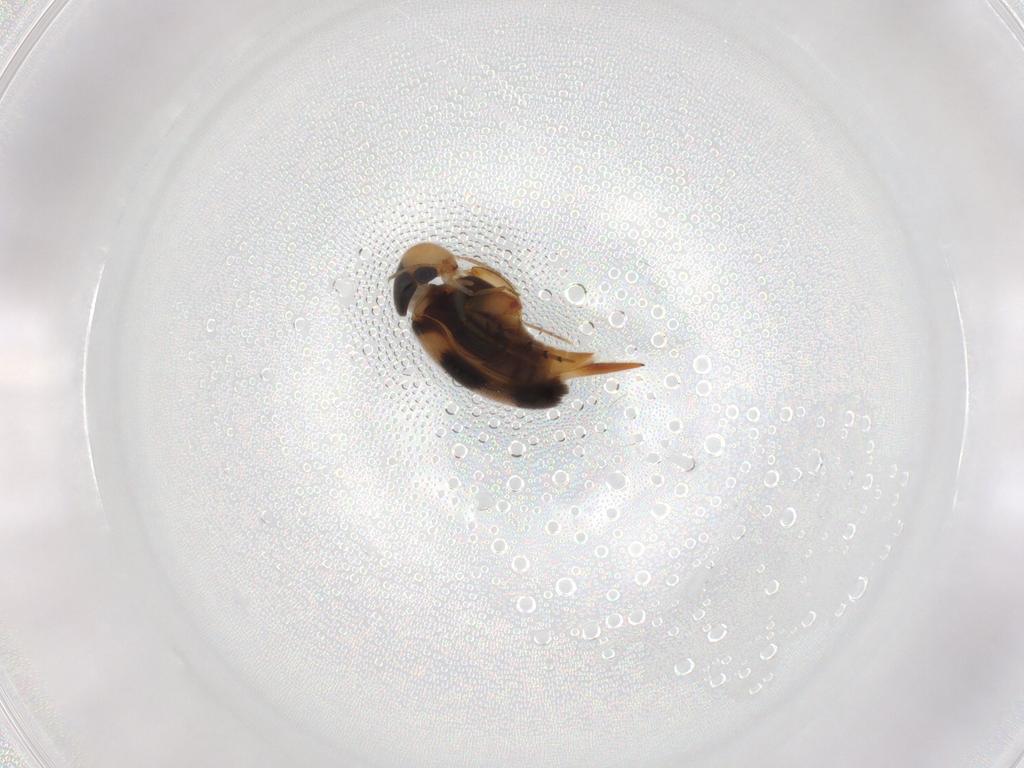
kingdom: Animalia
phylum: Arthropoda
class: Insecta
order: Coleoptera
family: Mordellidae
